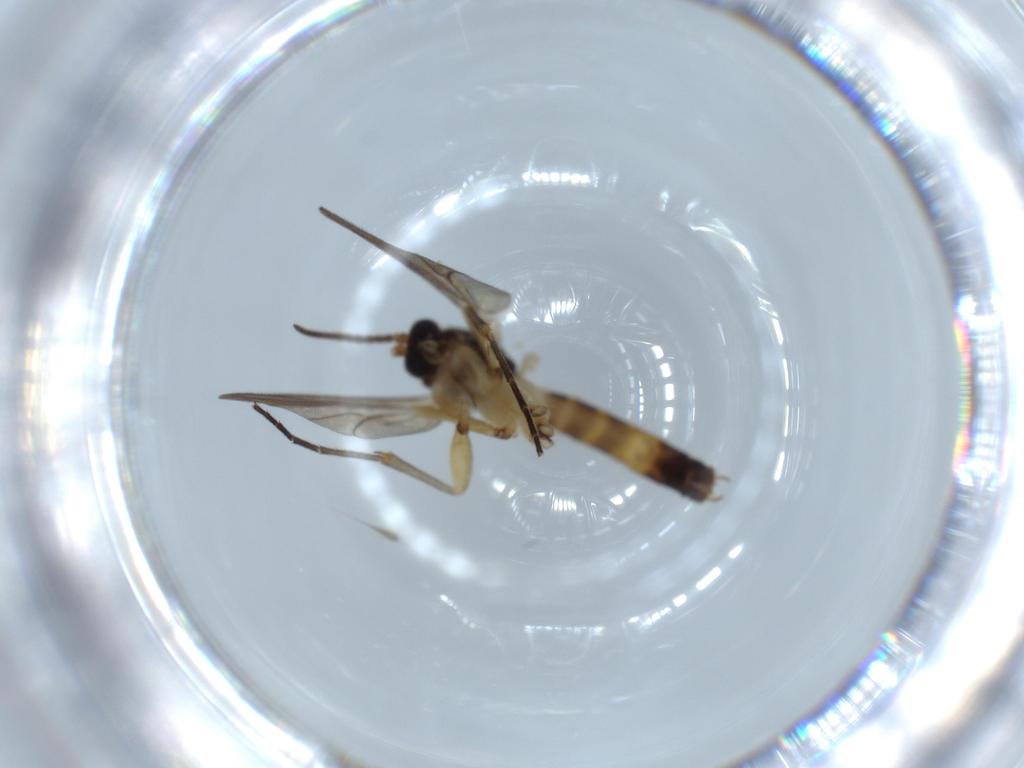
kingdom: Animalia
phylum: Arthropoda
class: Insecta
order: Diptera
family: Mycetophilidae
